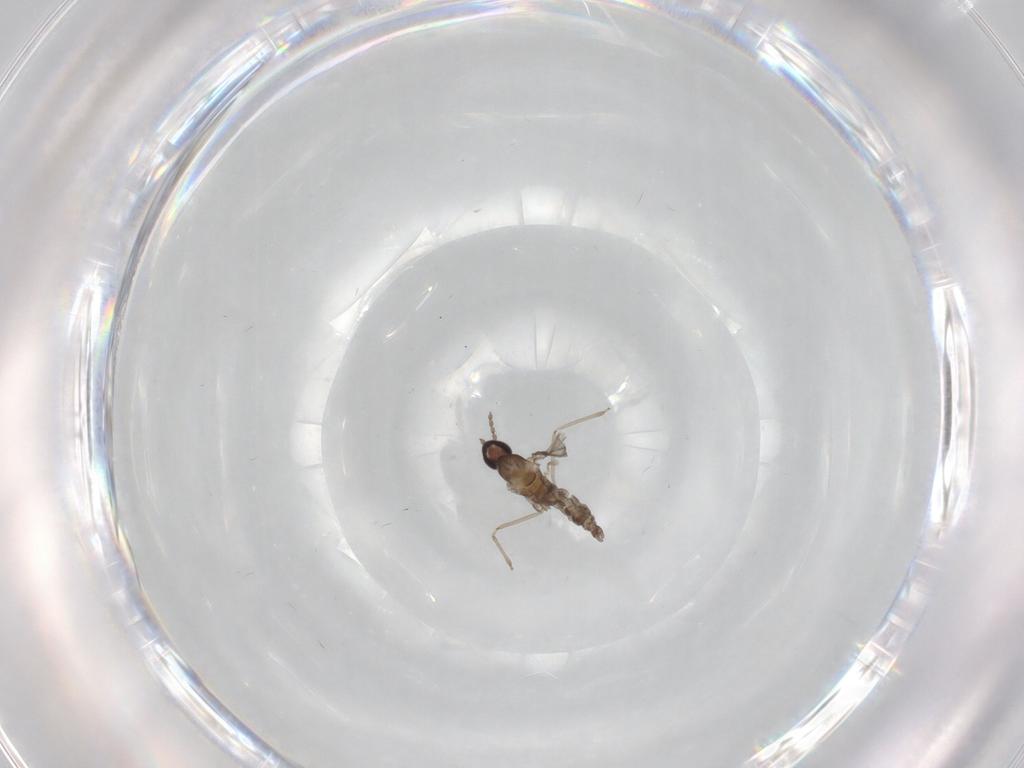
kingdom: Animalia
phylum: Arthropoda
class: Insecta
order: Diptera
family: Cecidomyiidae
